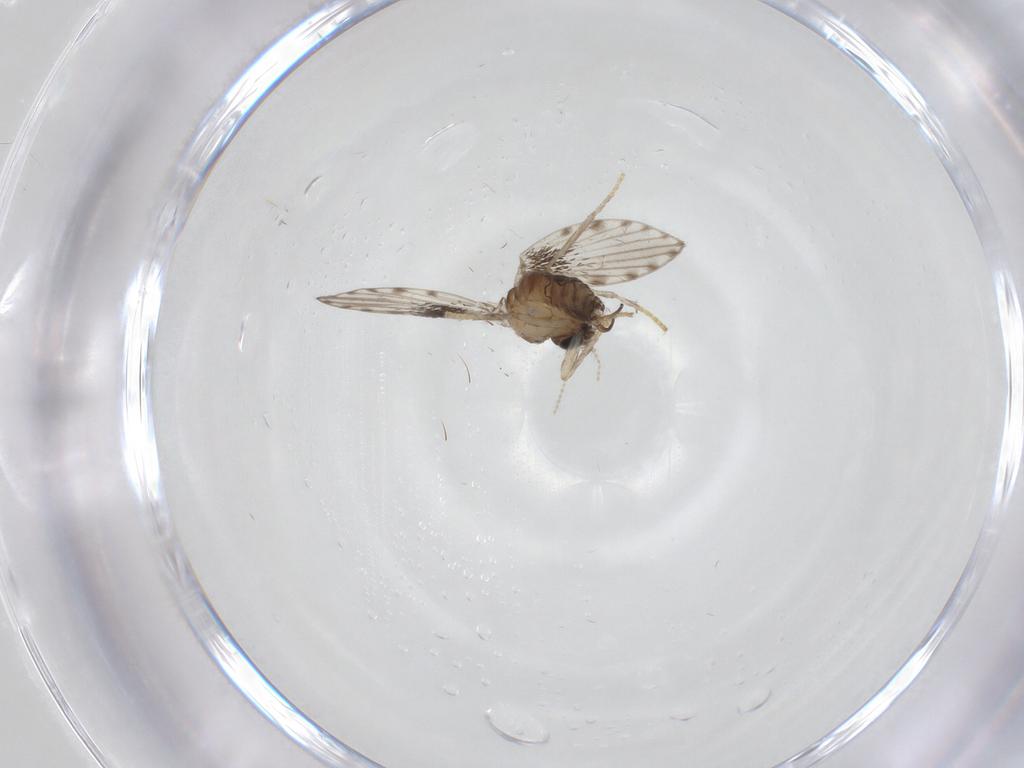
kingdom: Animalia
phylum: Arthropoda
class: Insecta
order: Diptera
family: Psychodidae
